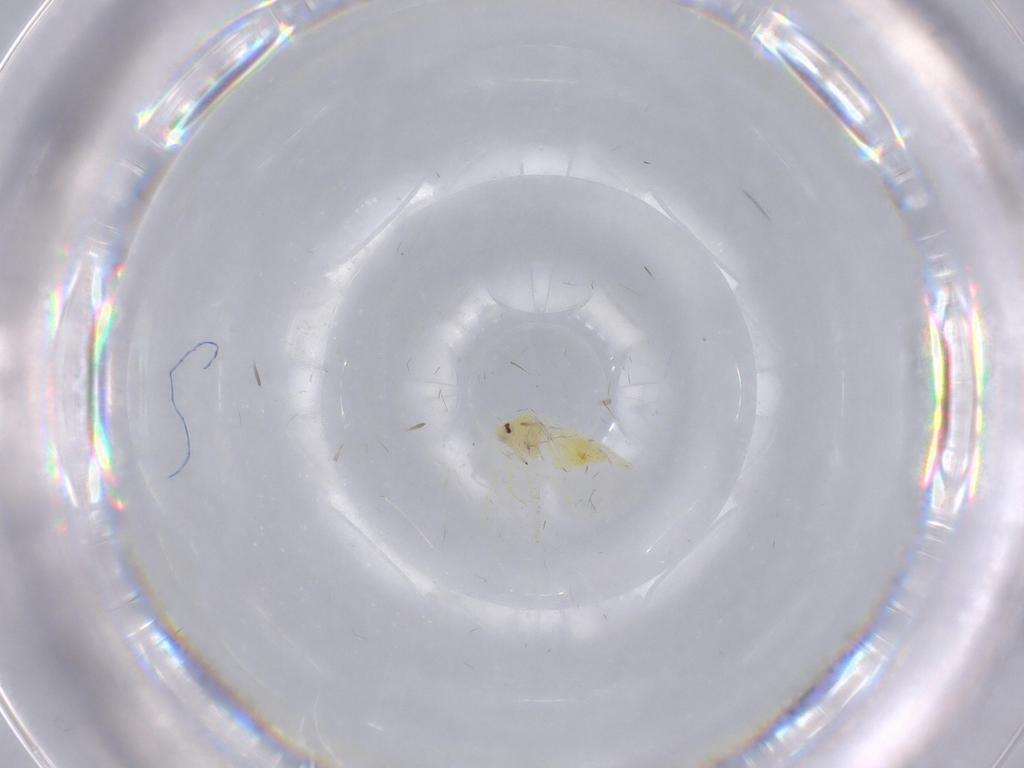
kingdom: Animalia
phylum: Arthropoda
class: Insecta
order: Hemiptera
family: Aleyrodidae
